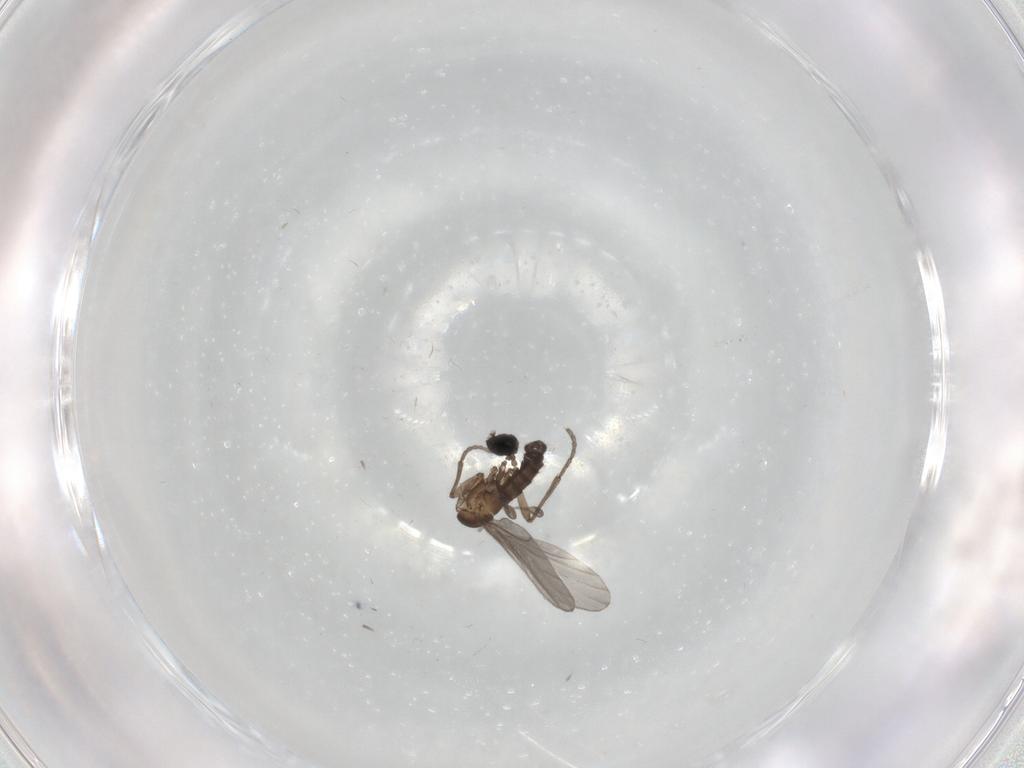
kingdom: Animalia
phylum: Arthropoda
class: Insecta
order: Diptera
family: Sciaridae
